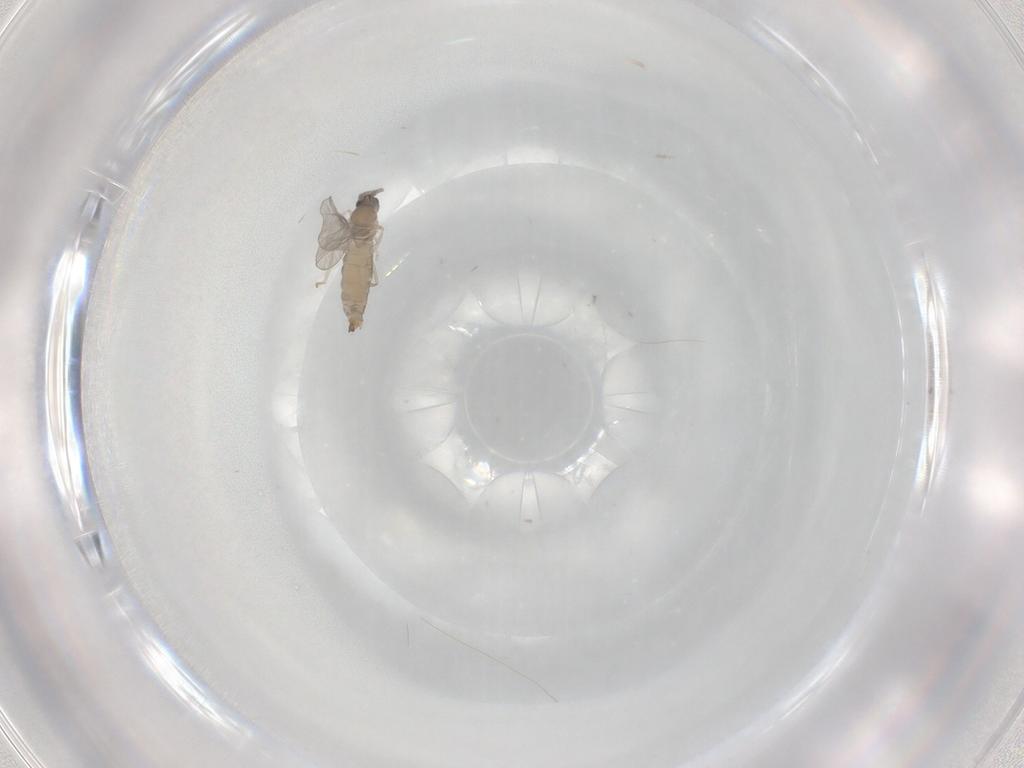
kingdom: Animalia
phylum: Arthropoda
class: Insecta
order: Diptera
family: Cecidomyiidae
